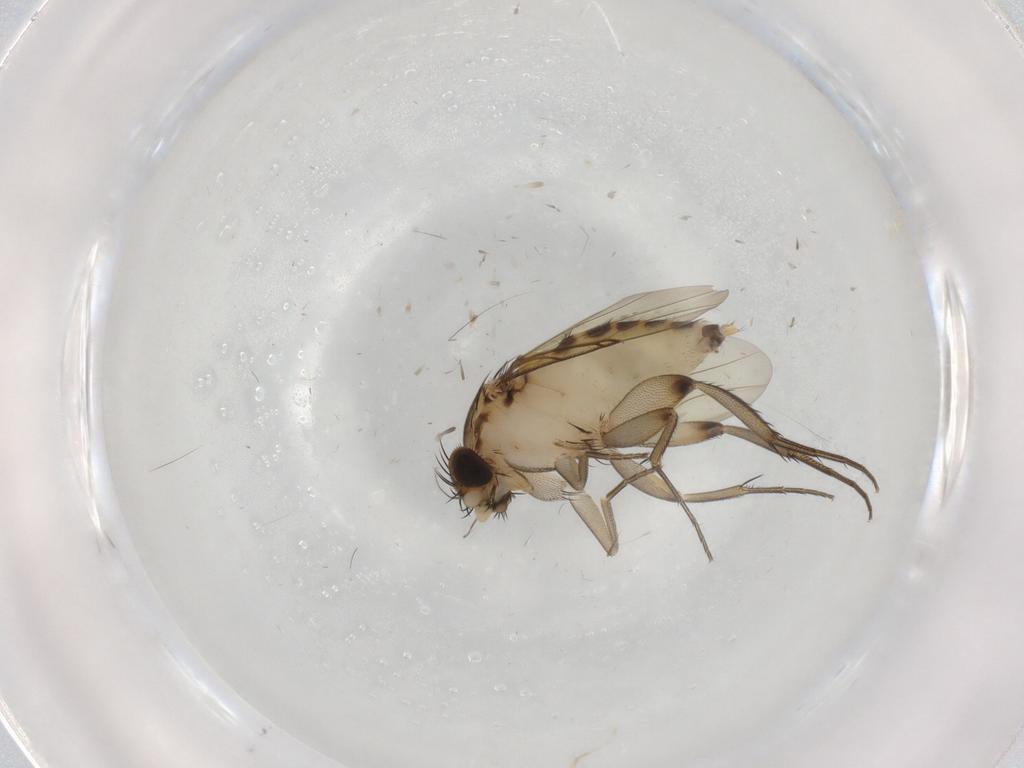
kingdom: Animalia
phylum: Arthropoda
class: Insecta
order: Diptera
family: Phoridae
